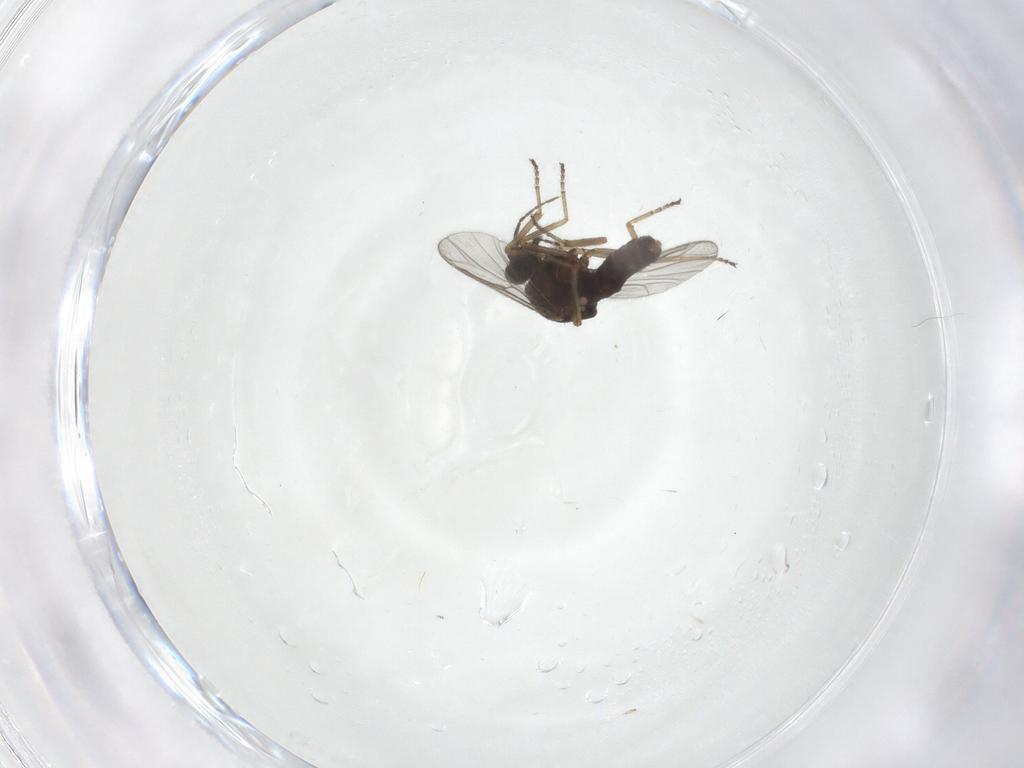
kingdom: Animalia
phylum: Arthropoda
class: Insecta
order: Diptera
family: Ceratopogonidae
